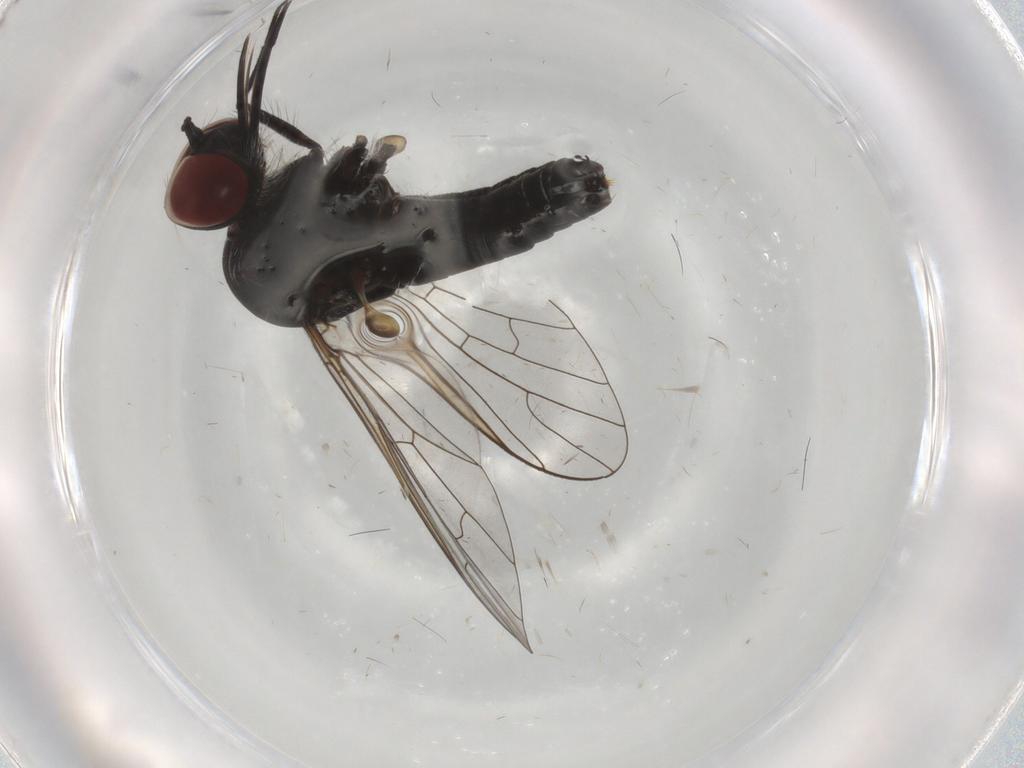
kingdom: Animalia
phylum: Arthropoda
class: Insecta
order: Diptera
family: Bombyliidae
